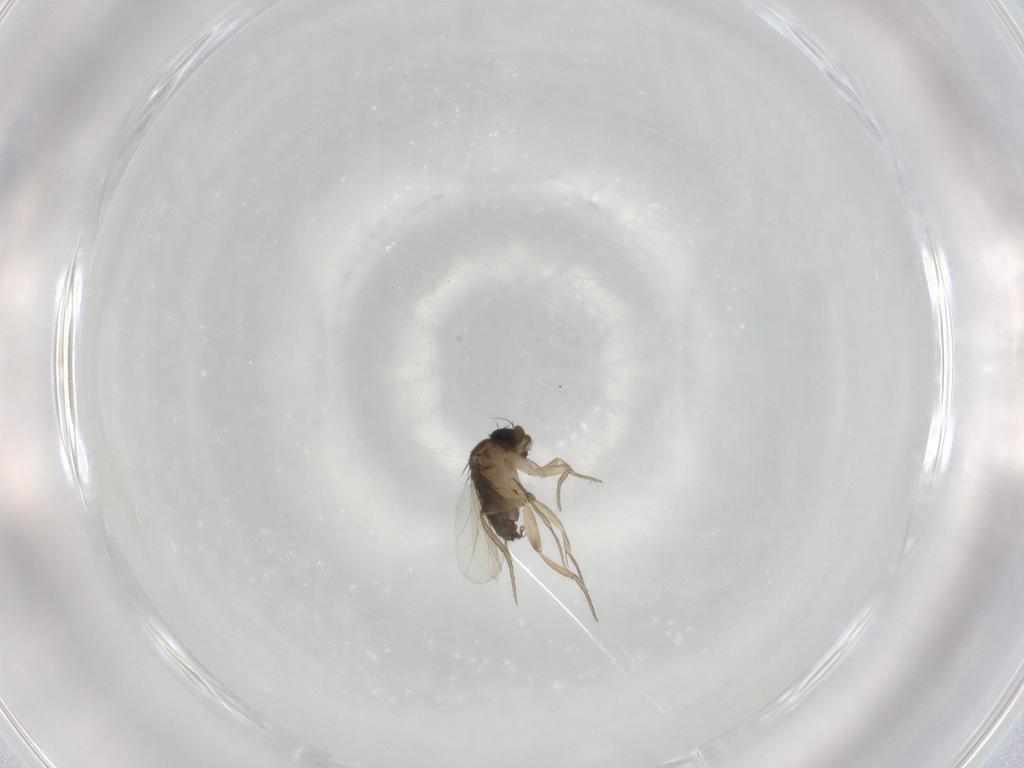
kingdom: Animalia
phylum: Arthropoda
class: Insecta
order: Diptera
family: Phoridae
